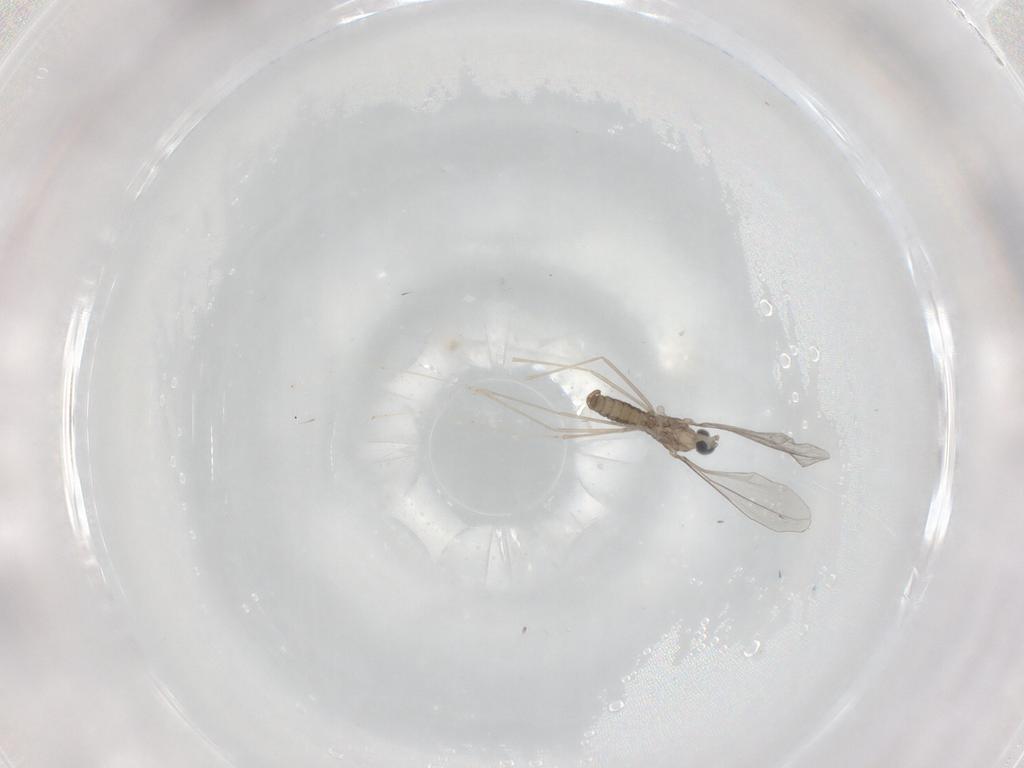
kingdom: Animalia
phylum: Arthropoda
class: Insecta
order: Diptera
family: Cecidomyiidae
